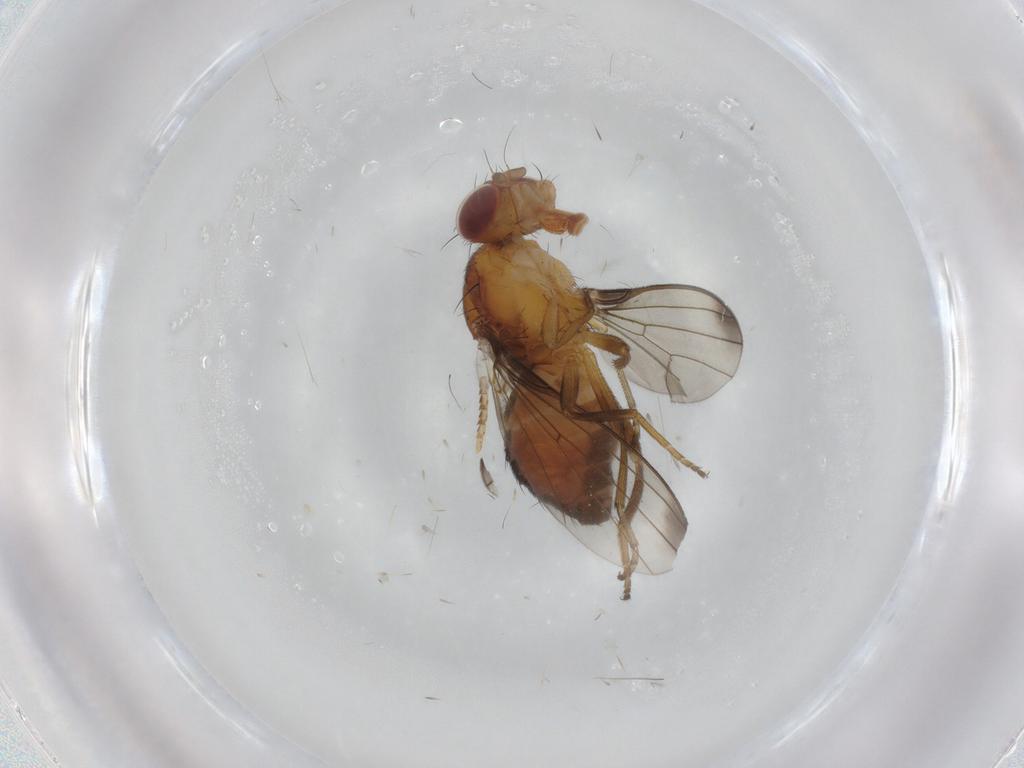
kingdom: Animalia
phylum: Arthropoda
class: Insecta
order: Diptera
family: Piophilidae
